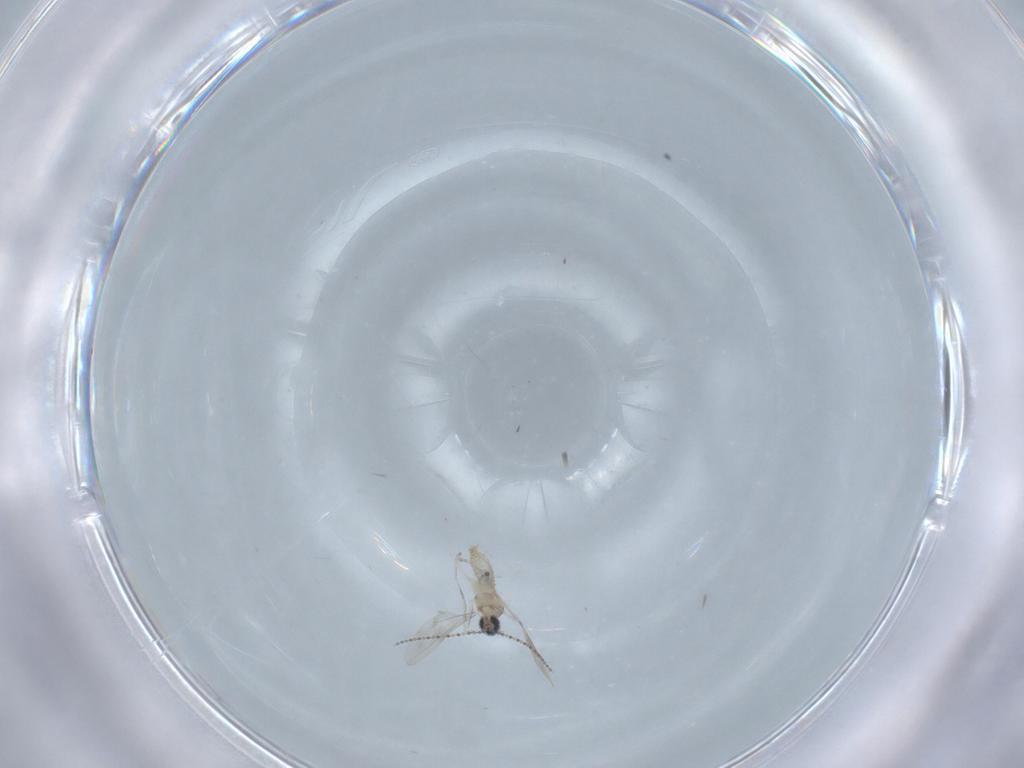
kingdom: Animalia
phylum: Arthropoda
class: Insecta
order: Diptera
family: Cecidomyiidae
